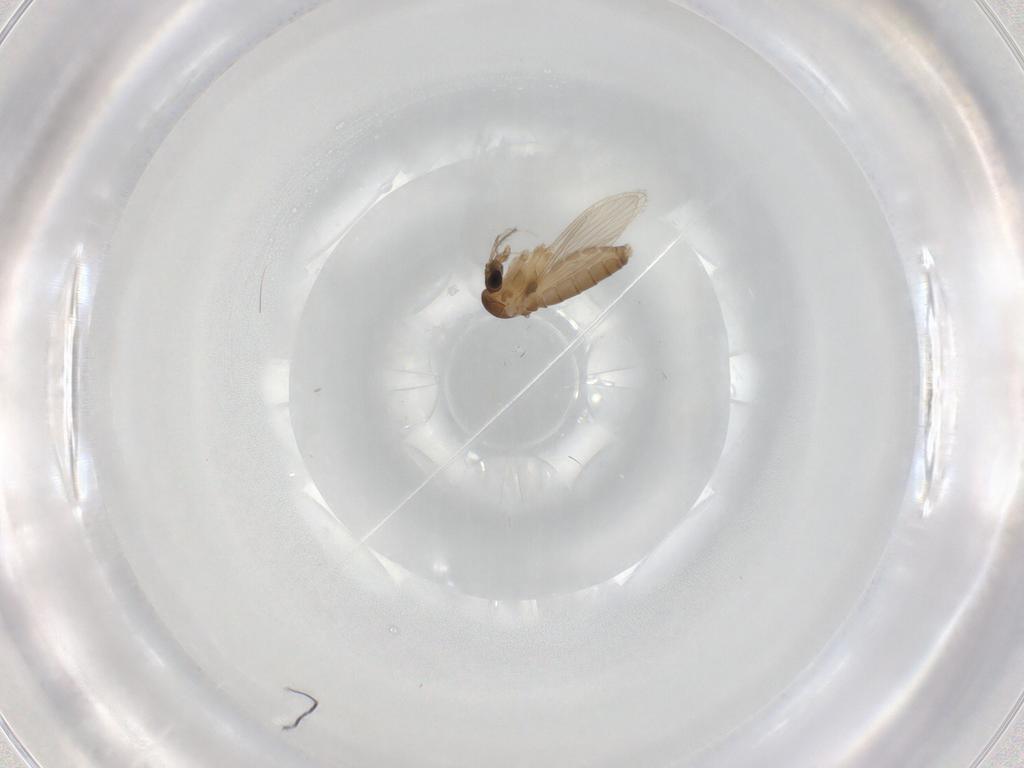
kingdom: Animalia
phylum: Arthropoda
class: Insecta
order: Diptera
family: Psychodidae
